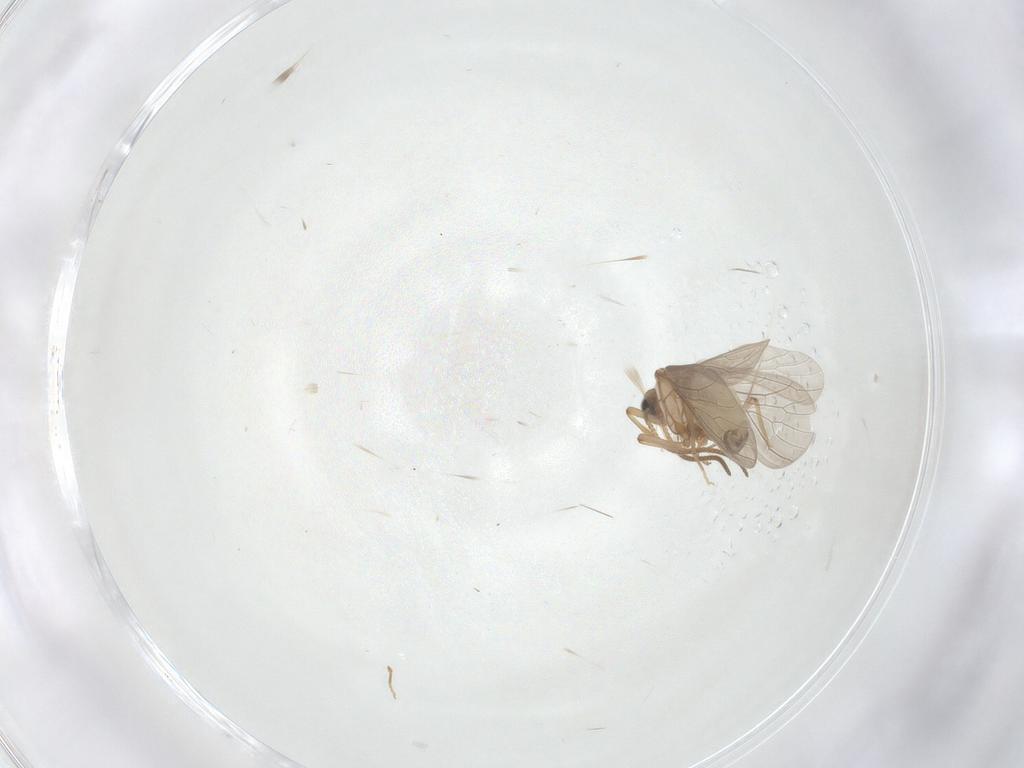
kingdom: Animalia
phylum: Arthropoda
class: Insecta
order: Neuroptera
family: Coniopterygidae
